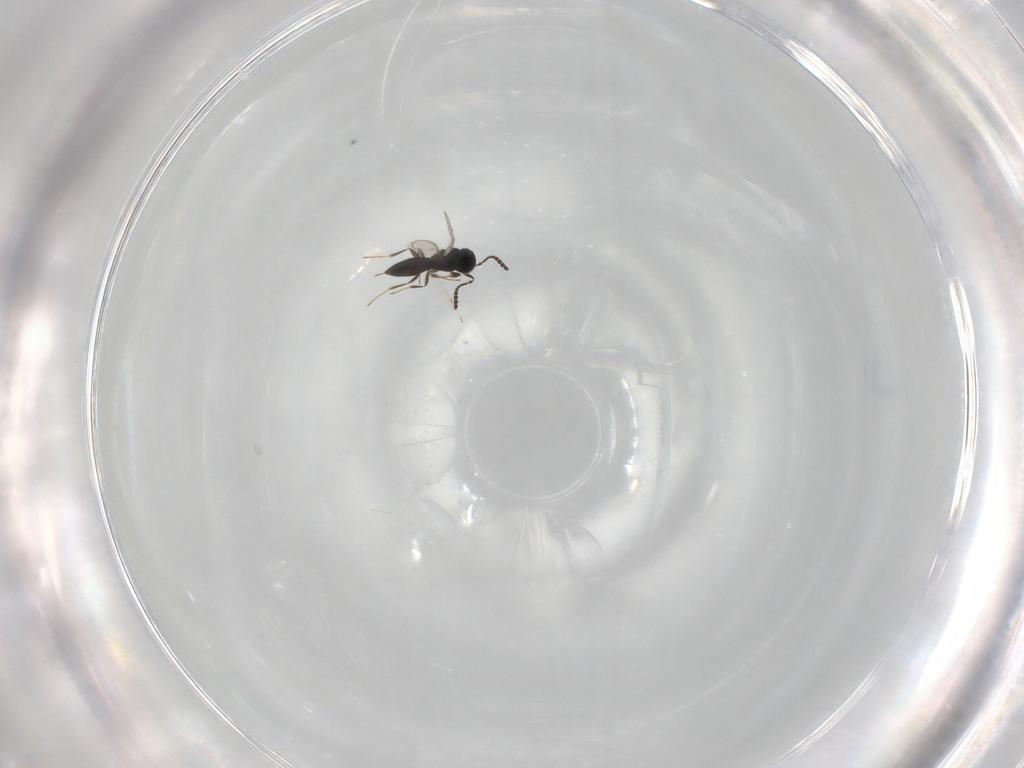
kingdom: Animalia
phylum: Arthropoda
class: Insecta
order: Hymenoptera
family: Scelionidae
